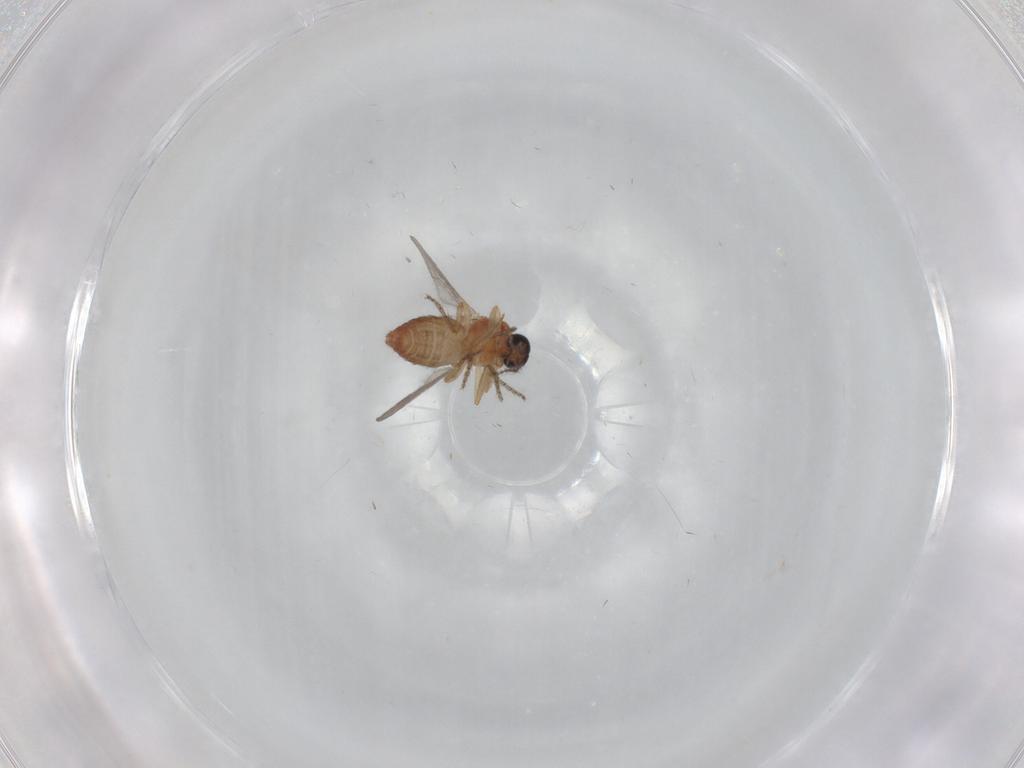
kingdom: Animalia
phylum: Arthropoda
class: Insecta
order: Diptera
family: Ceratopogonidae
